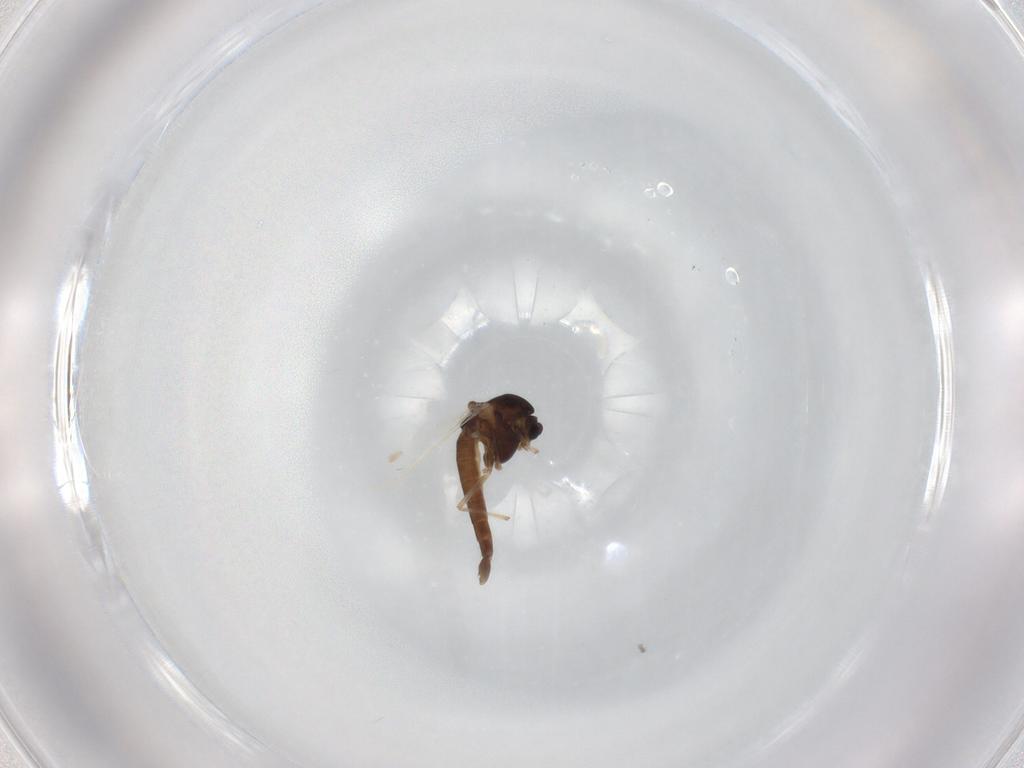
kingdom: Animalia
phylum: Arthropoda
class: Insecta
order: Diptera
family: Chironomidae
